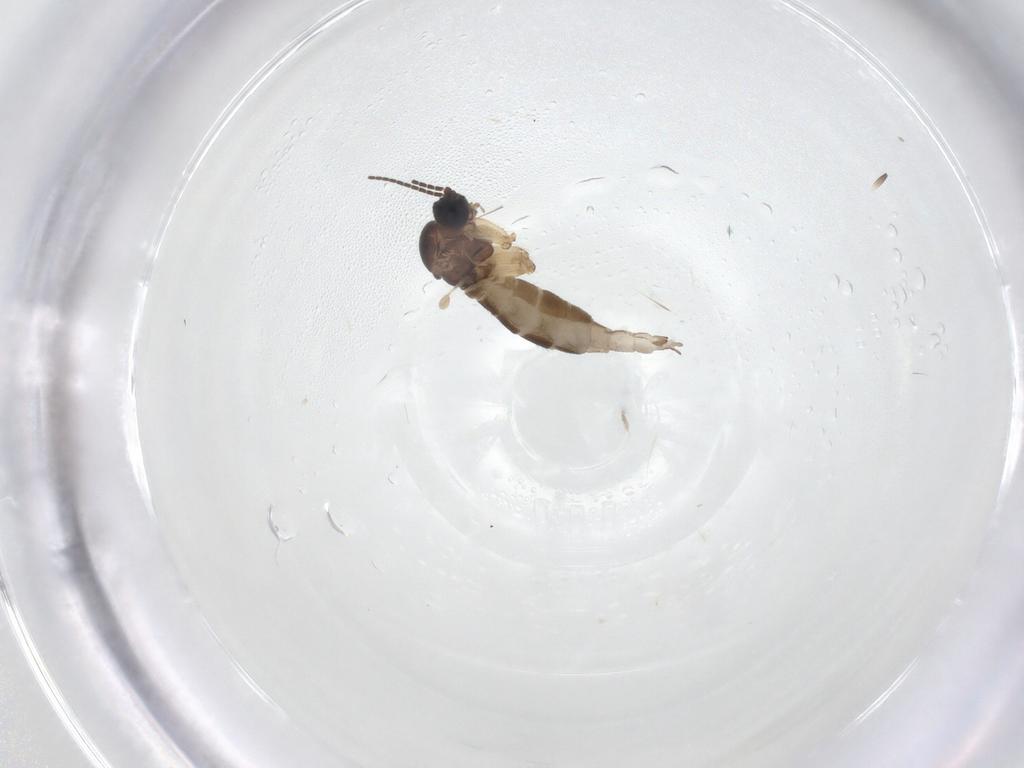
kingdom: Animalia
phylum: Arthropoda
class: Insecta
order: Diptera
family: Sciaridae
